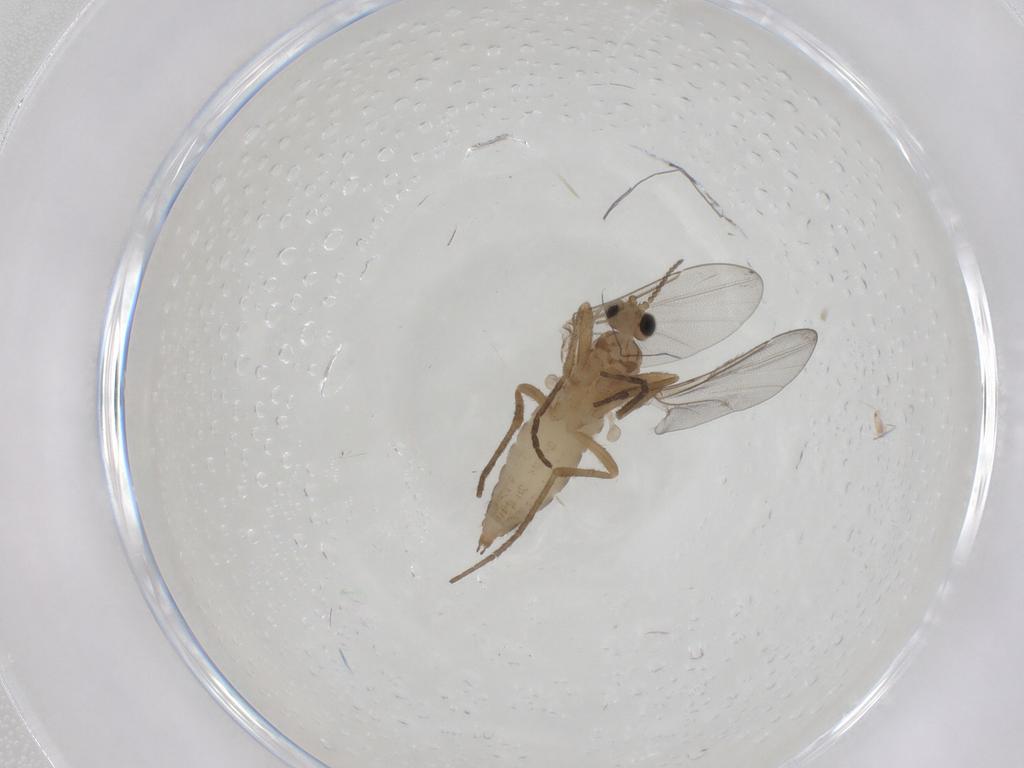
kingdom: Animalia
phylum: Arthropoda
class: Insecta
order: Diptera
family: Cecidomyiidae
